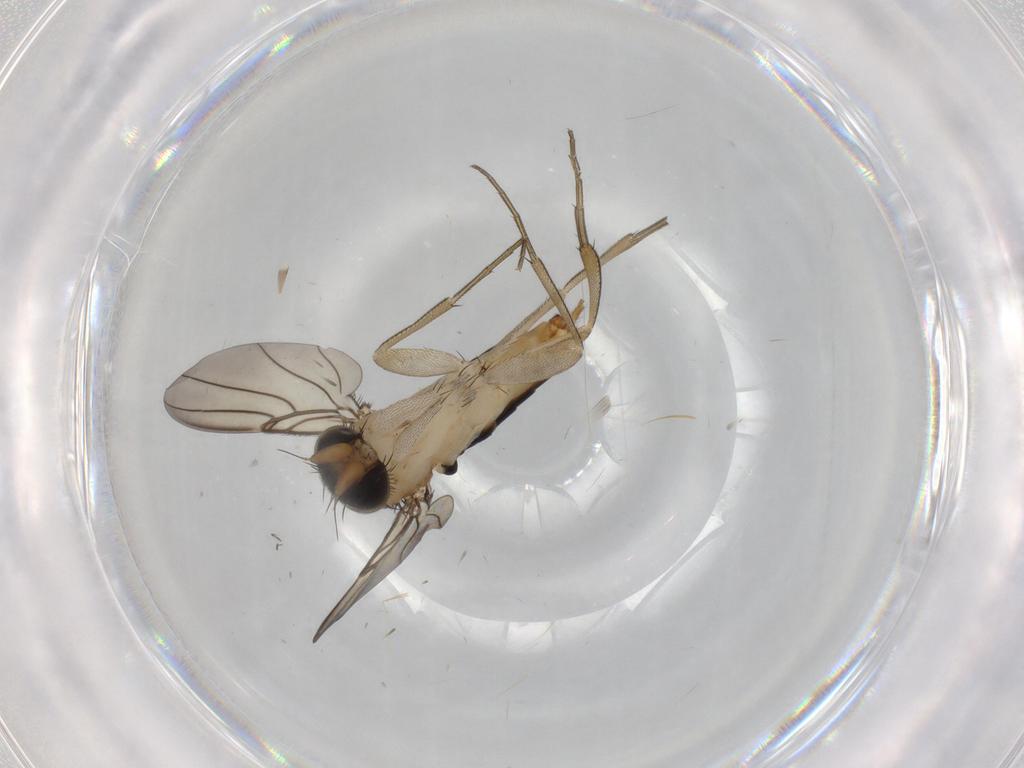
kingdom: Animalia
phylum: Arthropoda
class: Insecta
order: Diptera
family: Phoridae
